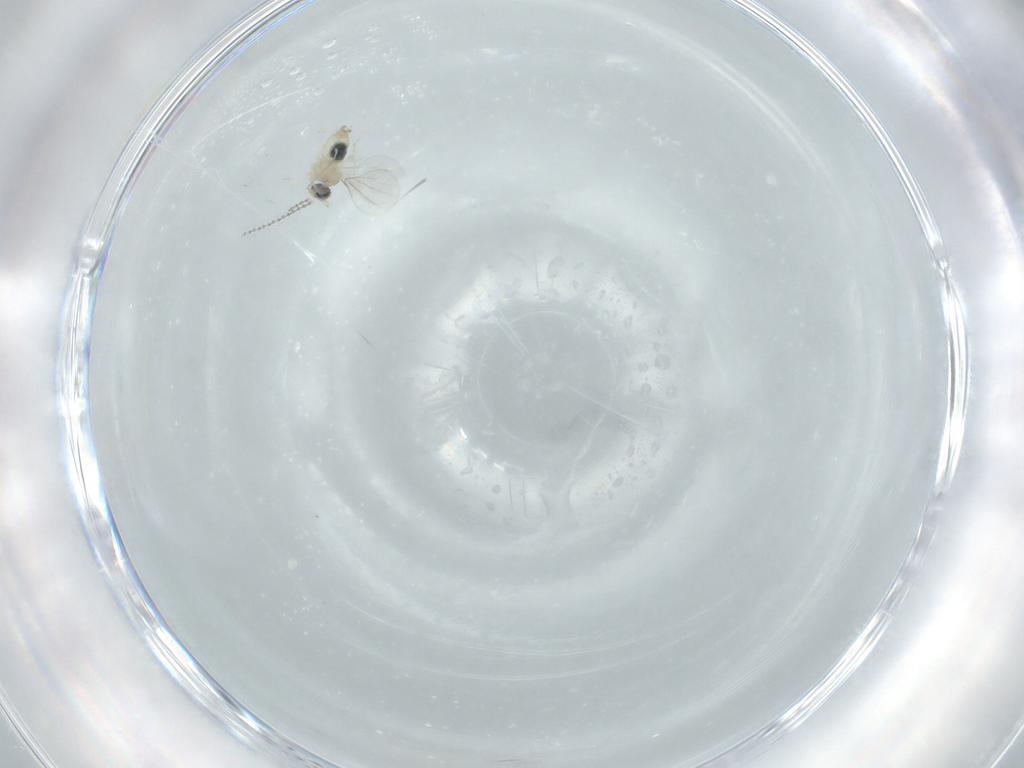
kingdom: Animalia
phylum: Arthropoda
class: Insecta
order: Diptera
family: Cecidomyiidae
